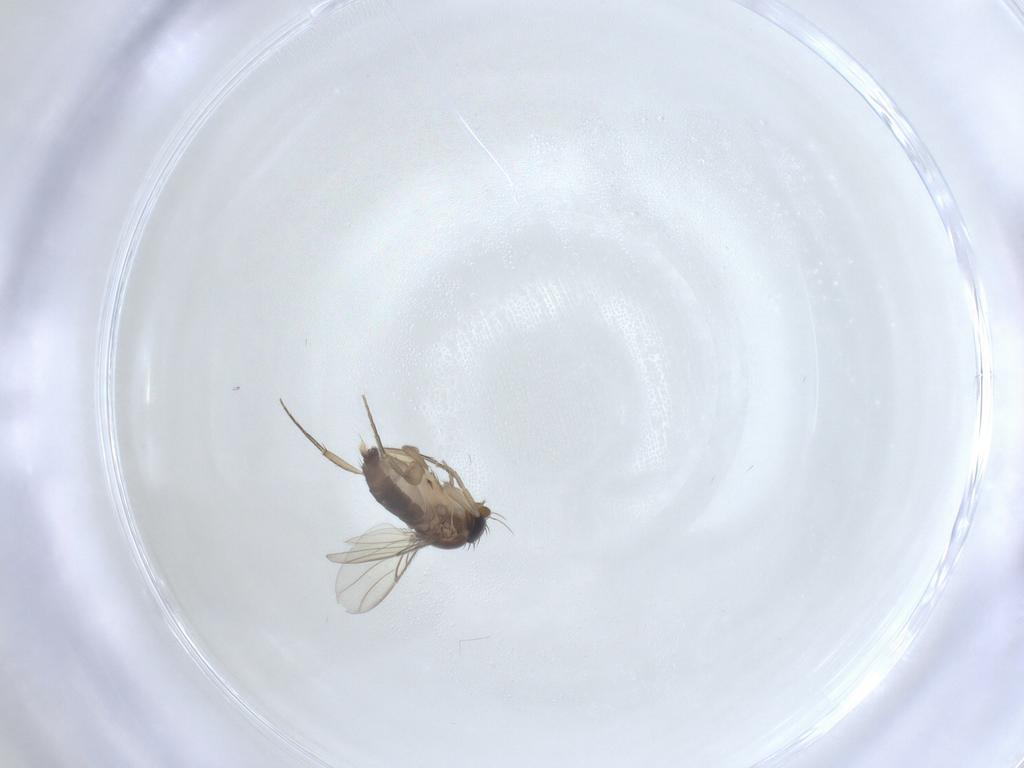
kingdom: Animalia
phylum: Arthropoda
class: Insecta
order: Diptera
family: Phoridae
